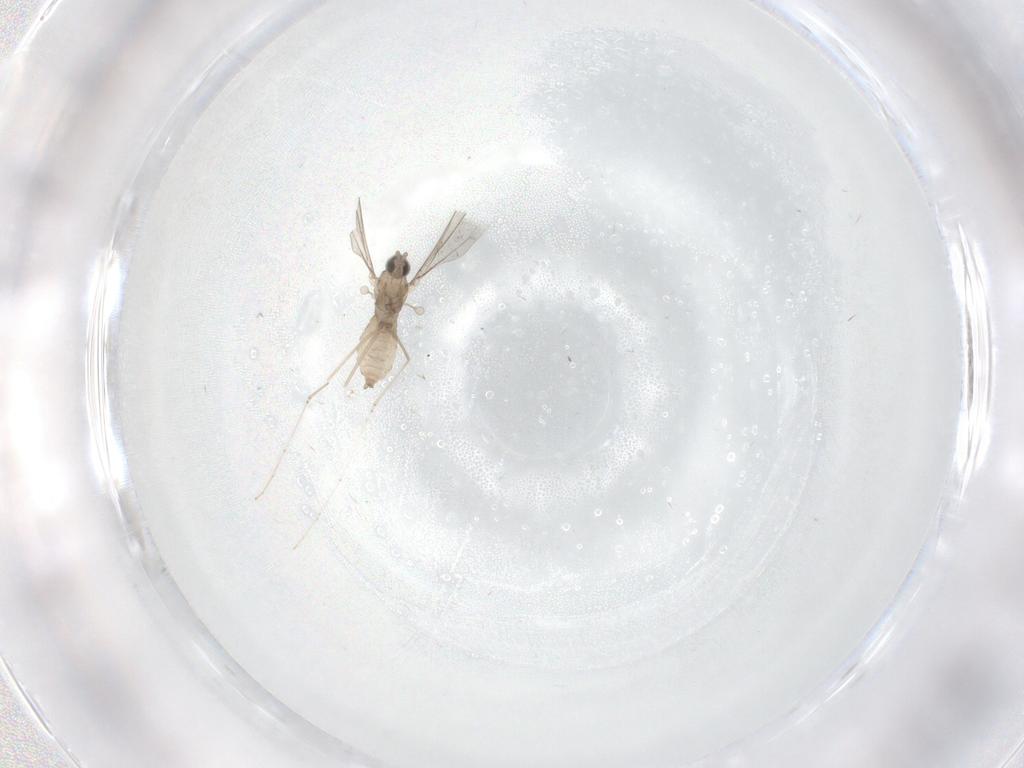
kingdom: Animalia
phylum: Arthropoda
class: Insecta
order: Diptera
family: Cecidomyiidae
